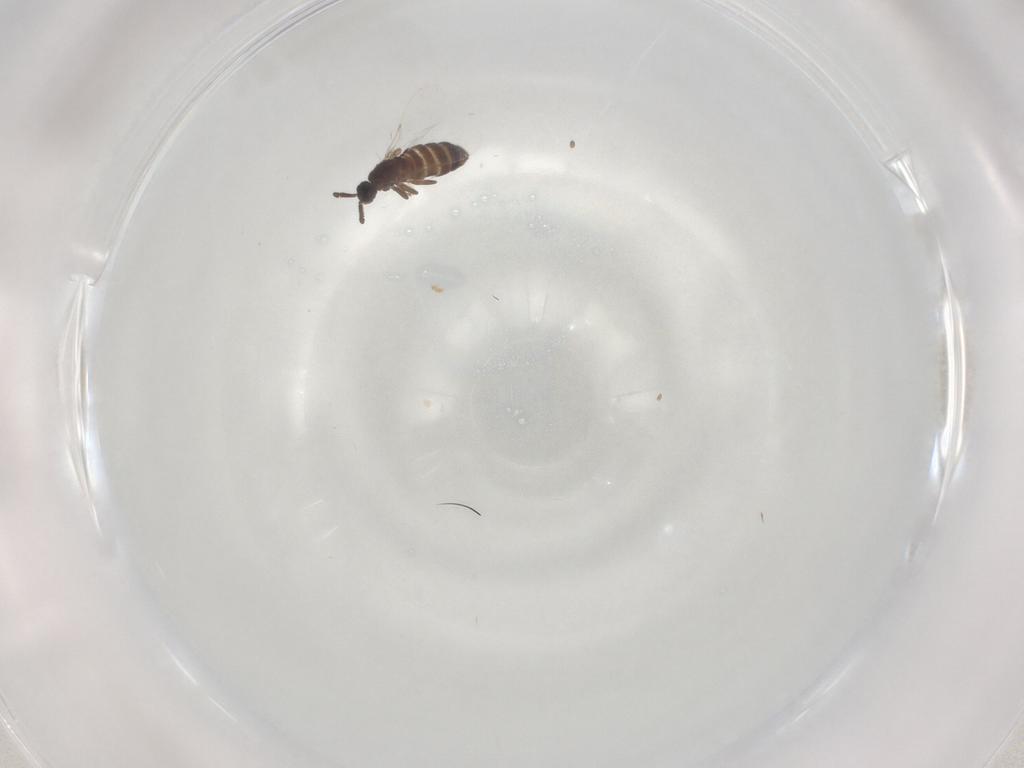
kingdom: Animalia
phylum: Arthropoda
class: Insecta
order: Diptera
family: Scatopsidae
